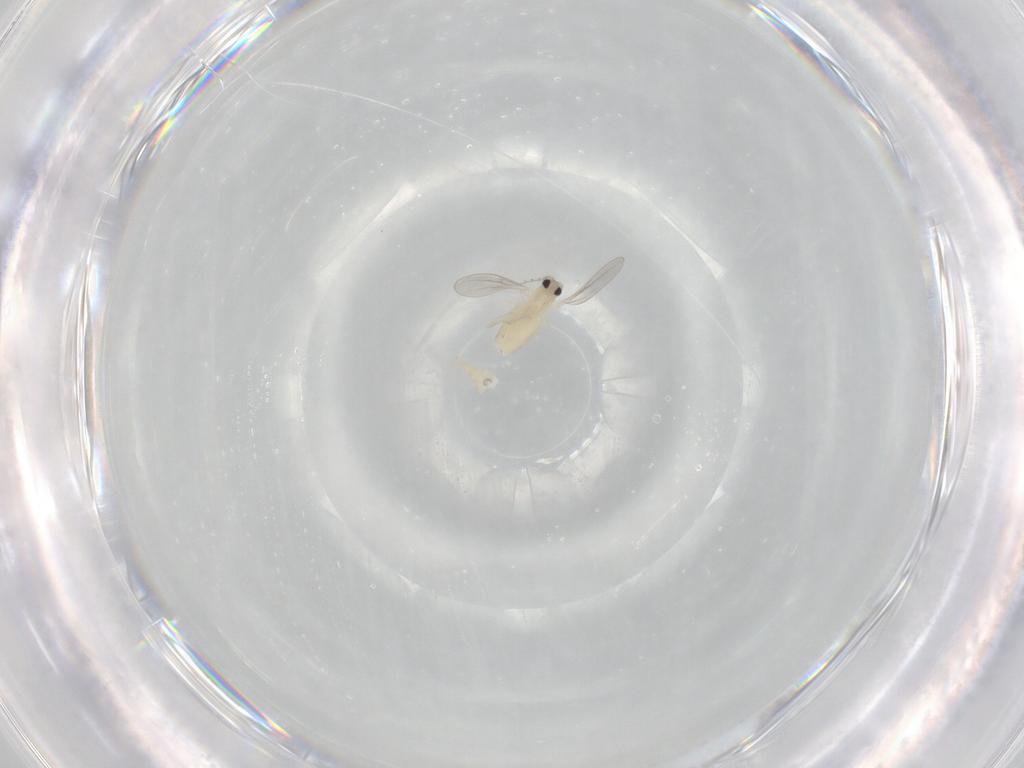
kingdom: Animalia
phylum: Arthropoda
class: Insecta
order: Diptera
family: Cecidomyiidae
